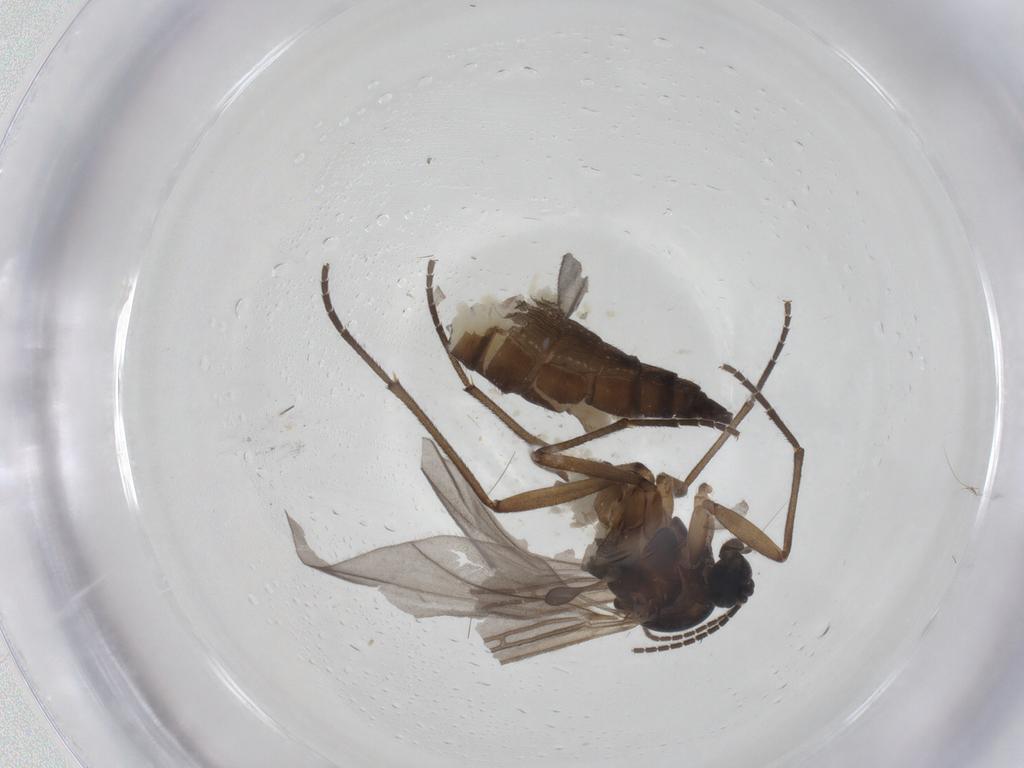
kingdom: Animalia
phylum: Arthropoda
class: Insecta
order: Diptera
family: Sciaridae
